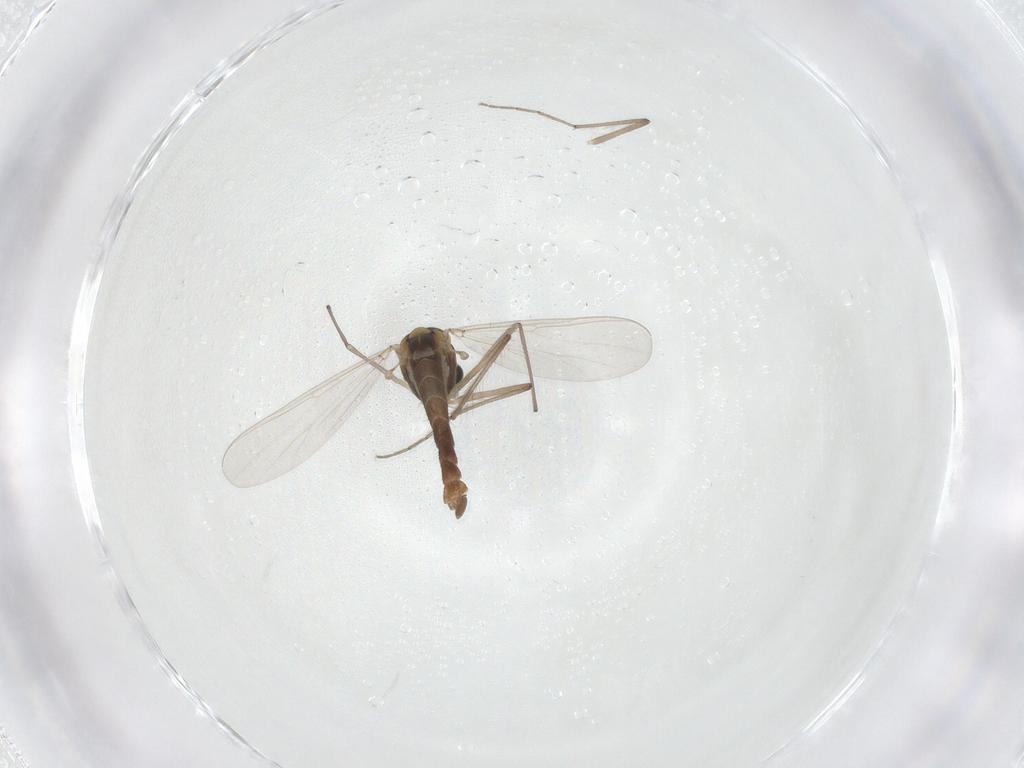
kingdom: Animalia
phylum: Arthropoda
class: Insecta
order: Diptera
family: Chironomidae
